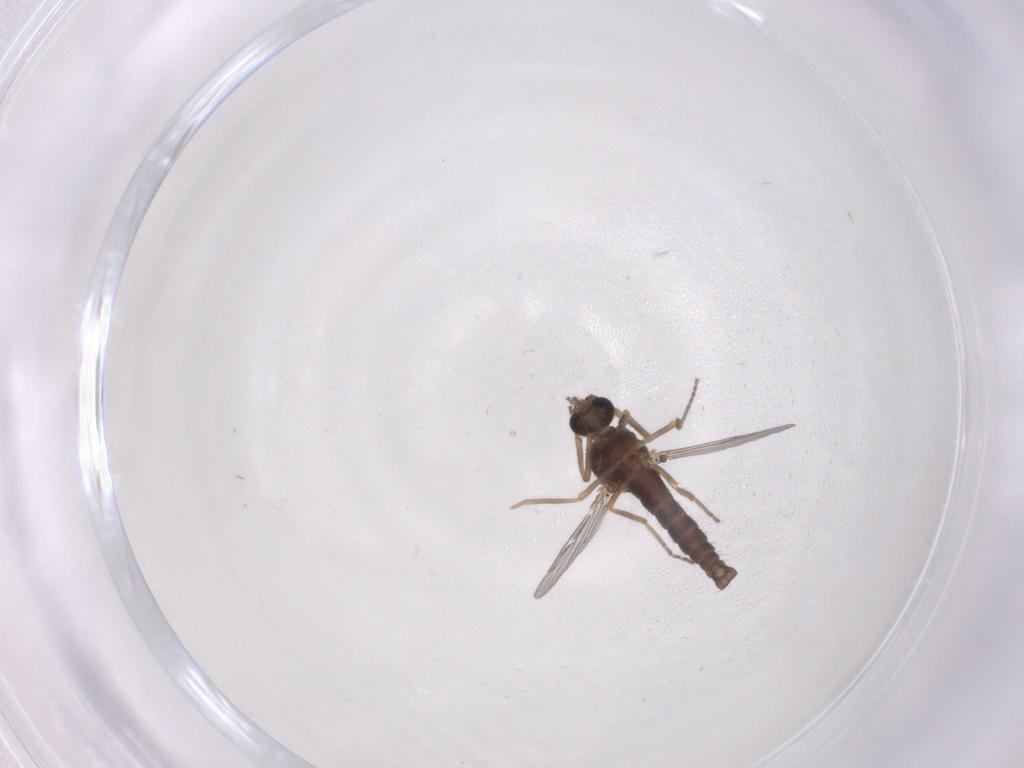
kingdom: Animalia
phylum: Arthropoda
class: Insecta
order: Diptera
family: Ceratopogonidae
